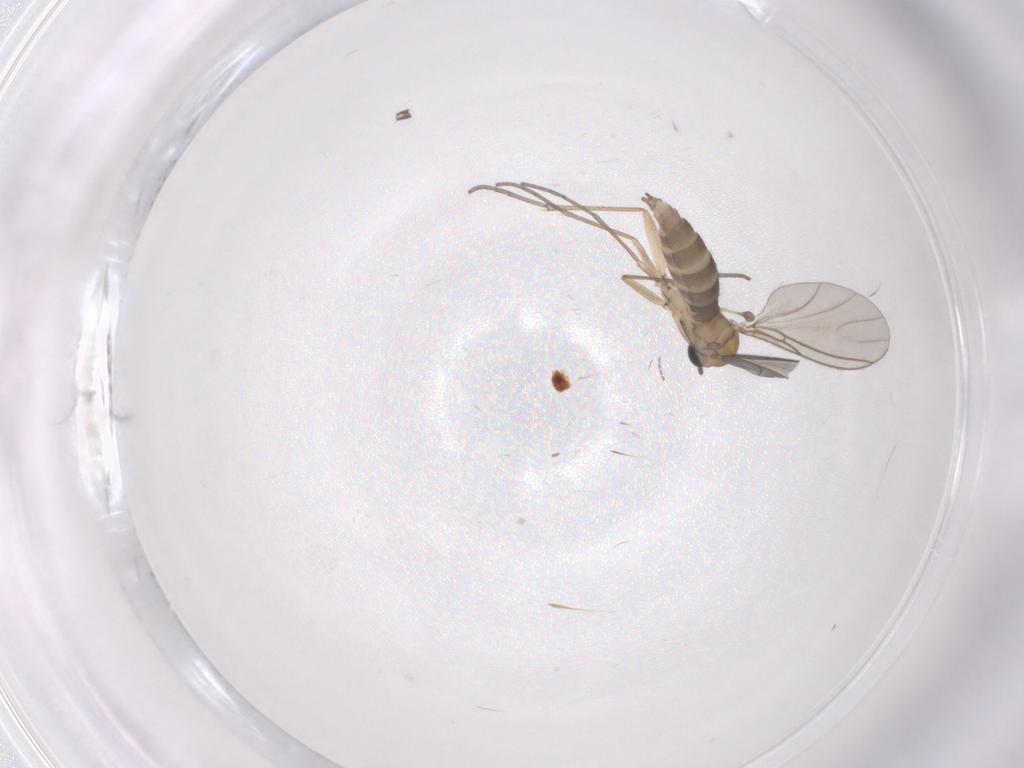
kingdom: Animalia
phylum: Arthropoda
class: Insecta
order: Diptera
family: Sciaridae
